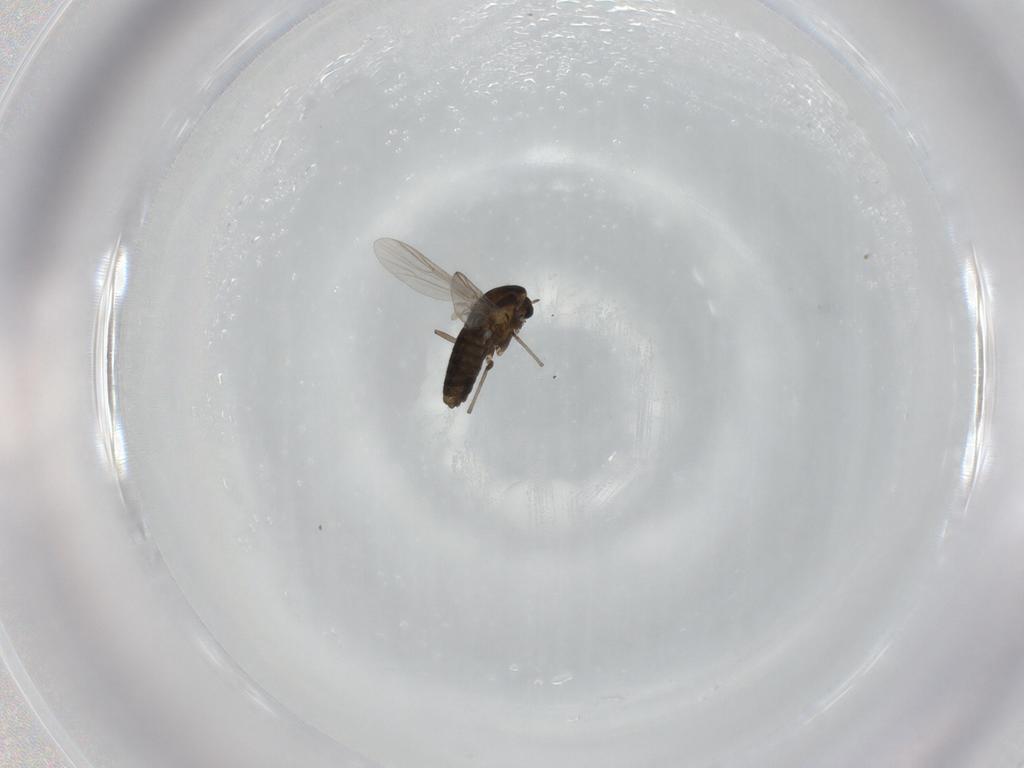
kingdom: Animalia
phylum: Arthropoda
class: Insecta
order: Diptera
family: Chironomidae
